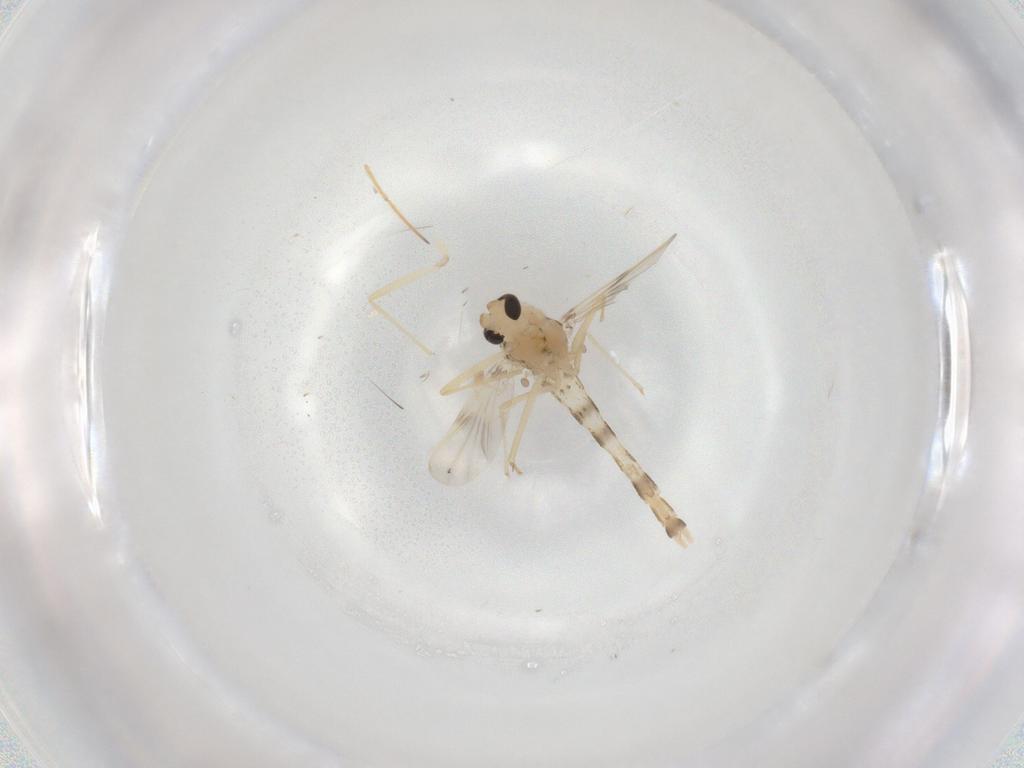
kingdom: Animalia
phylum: Arthropoda
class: Insecta
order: Diptera
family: Chironomidae
